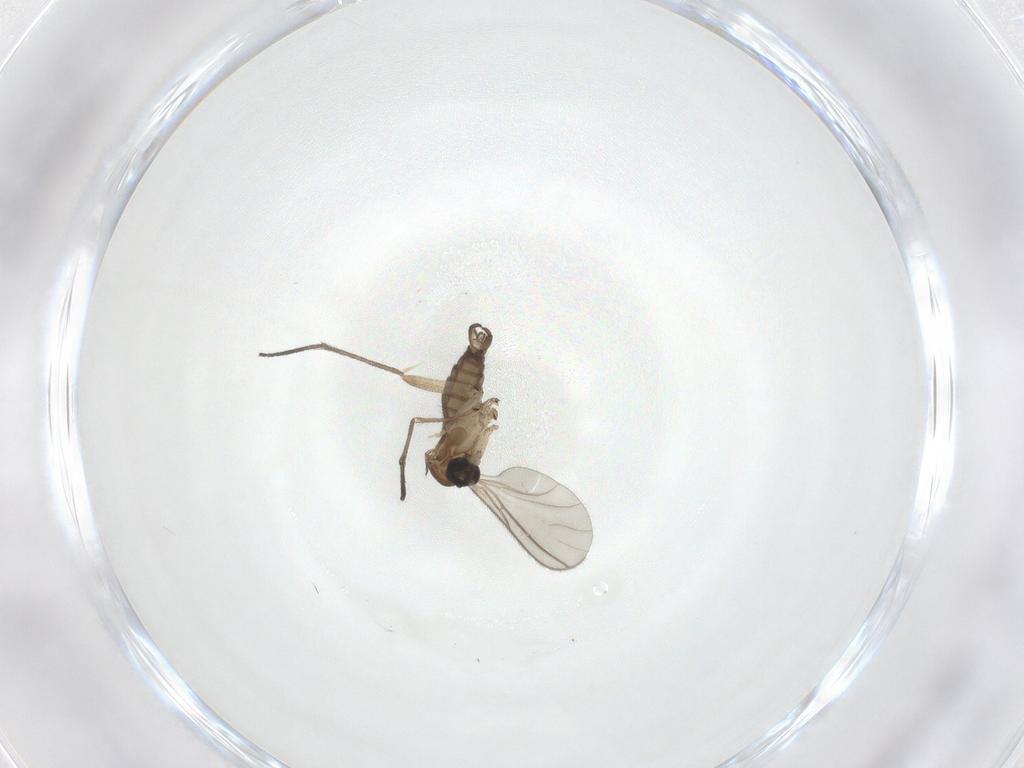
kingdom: Animalia
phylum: Arthropoda
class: Insecta
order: Diptera
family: Sciaridae
